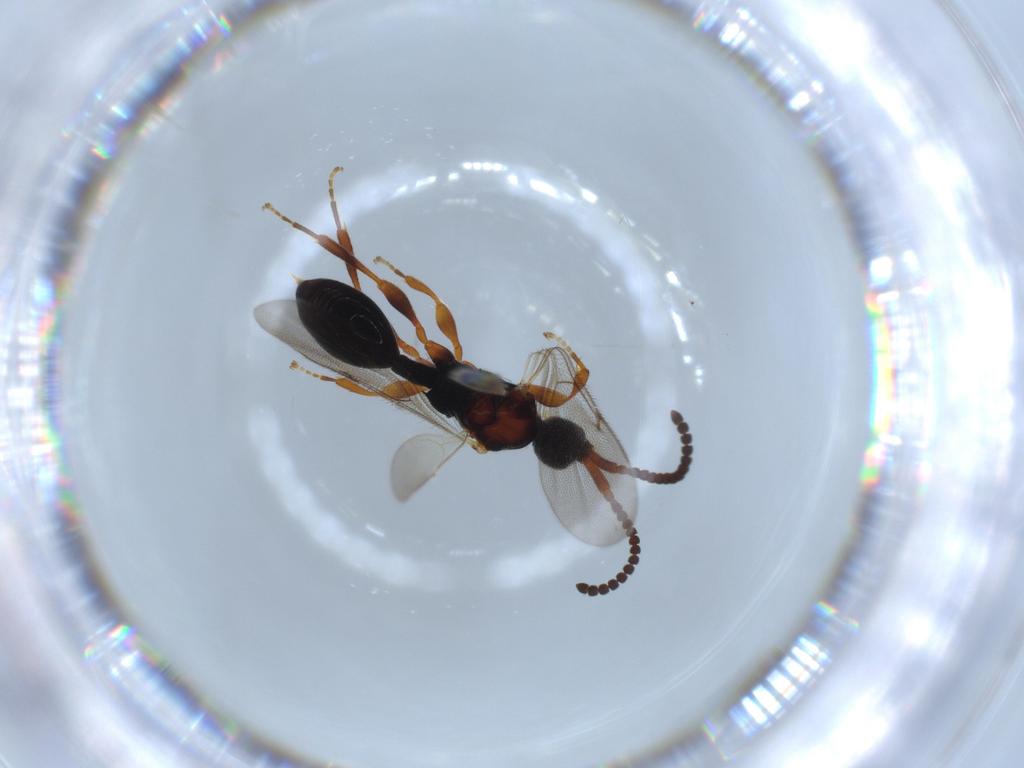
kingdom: Animalia
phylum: Arthropoda
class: Insecta
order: Hymenoptera
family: Diapriidae
